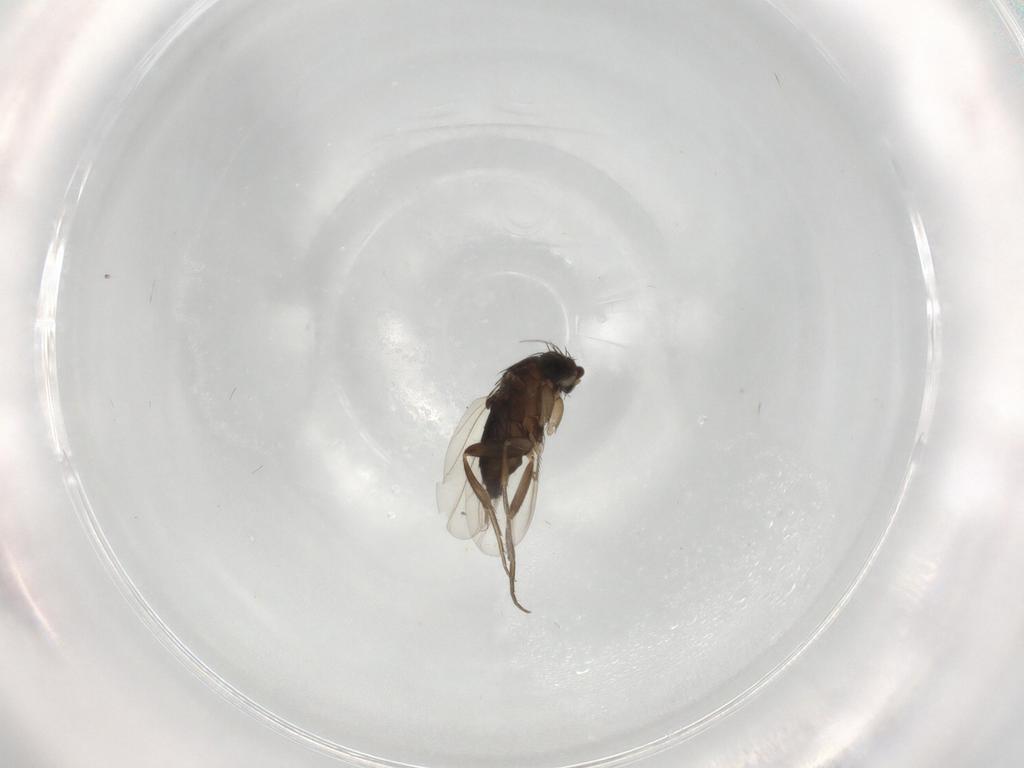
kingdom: Animalia
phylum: Arthropoda
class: Insecta
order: Diptera
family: Phoridae
